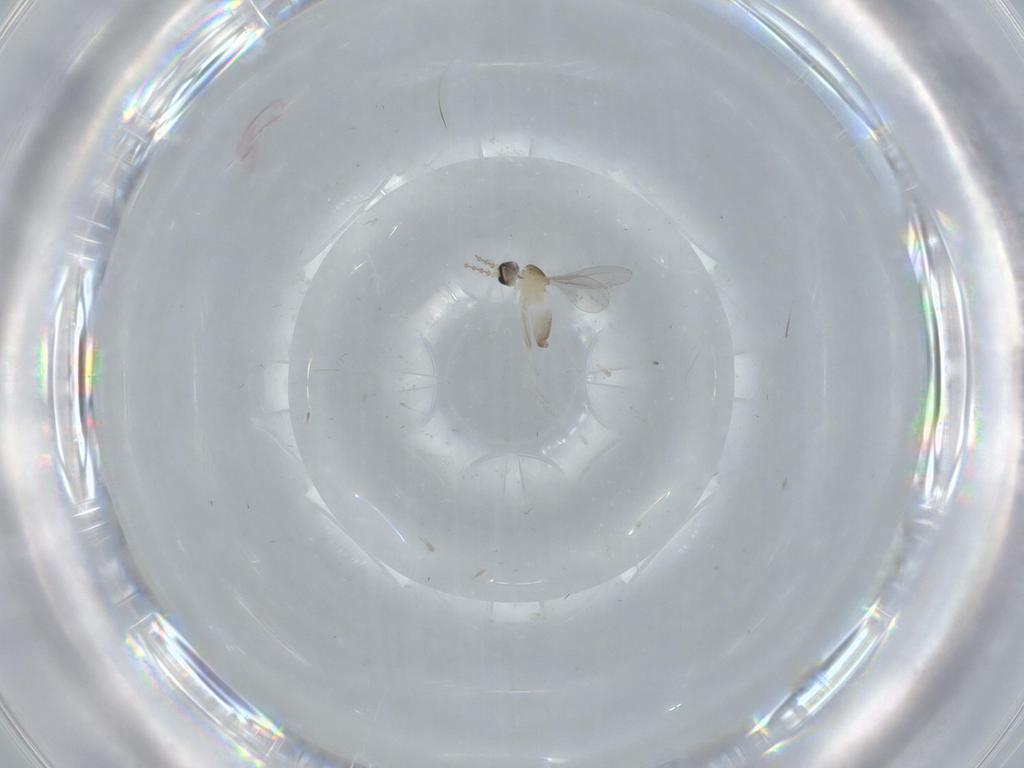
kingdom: Animalia
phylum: Arthropoda
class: Insecta
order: Diptera
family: Cecidomyiidae
